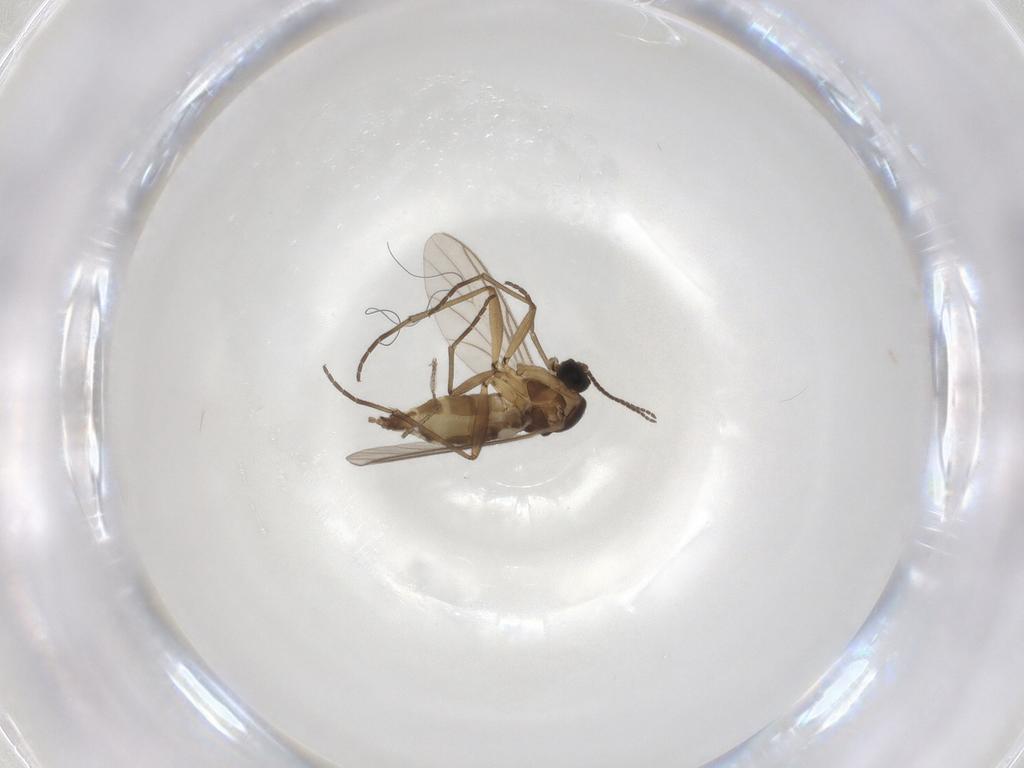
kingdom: Animalia
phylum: Arthropoda
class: Insecta
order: Diptera
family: Cecidomyiidae
